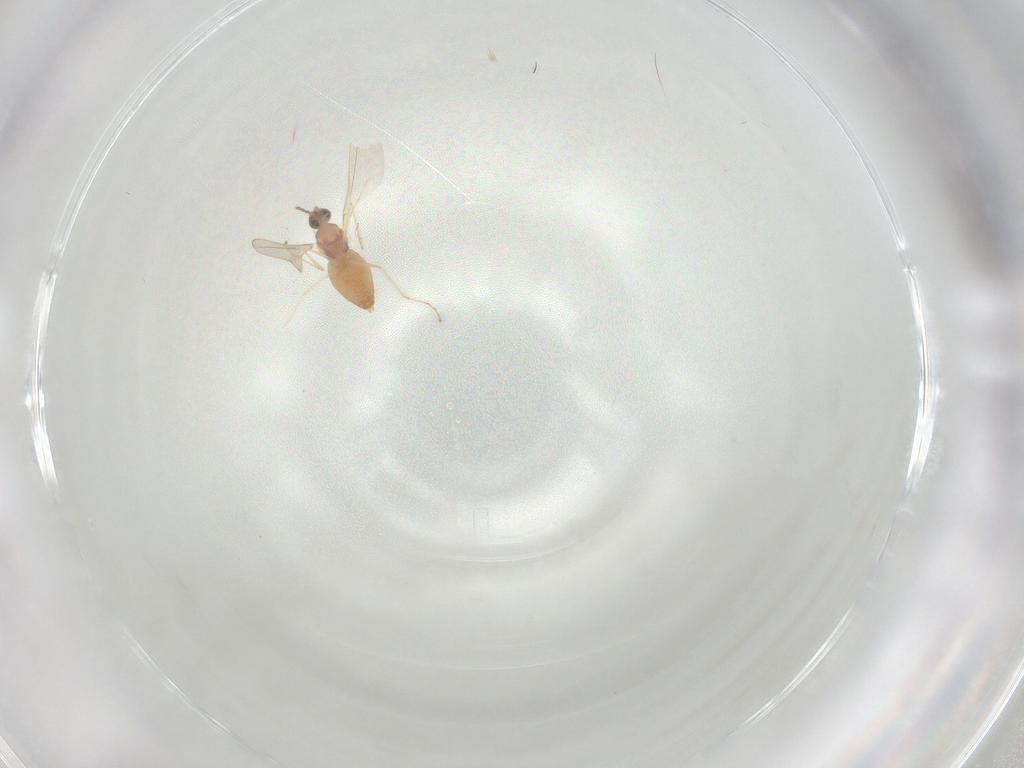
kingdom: Animalia
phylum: Arthropoda
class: Insecta
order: Diptera
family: Cecidomyiidae
